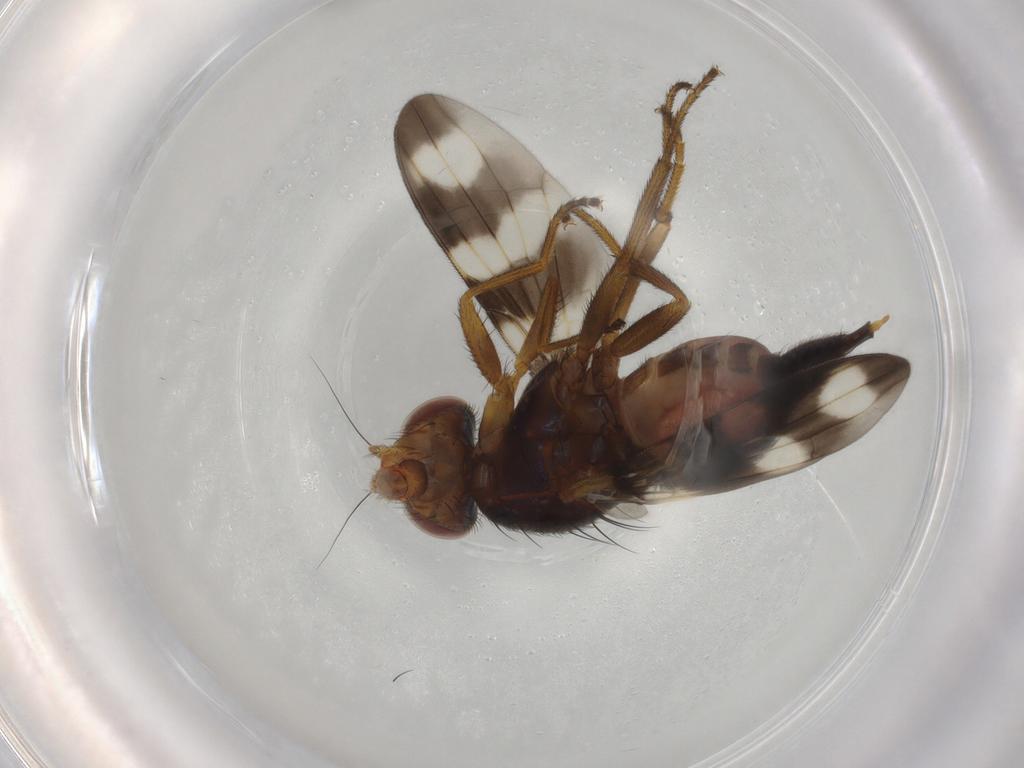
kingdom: Animalia
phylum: Arthropoda
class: Insecta
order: Diptera
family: Ulidiidae
